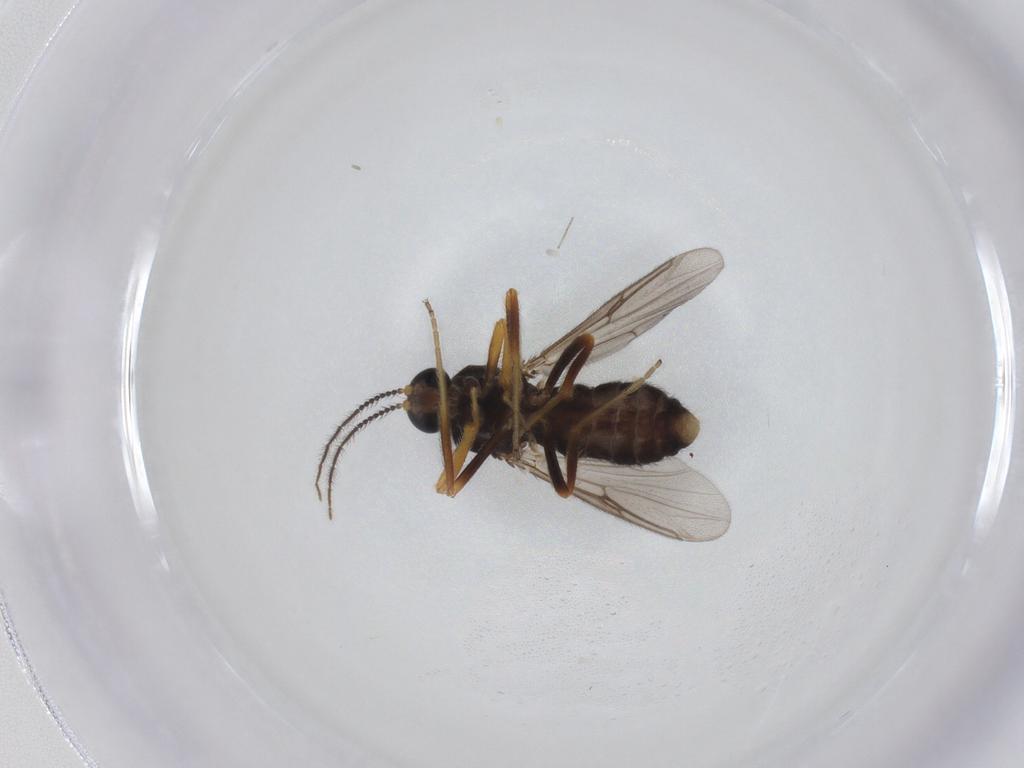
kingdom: Animalia
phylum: Arthropoda
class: Insecta
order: Diptera
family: Ceratopogonidae
